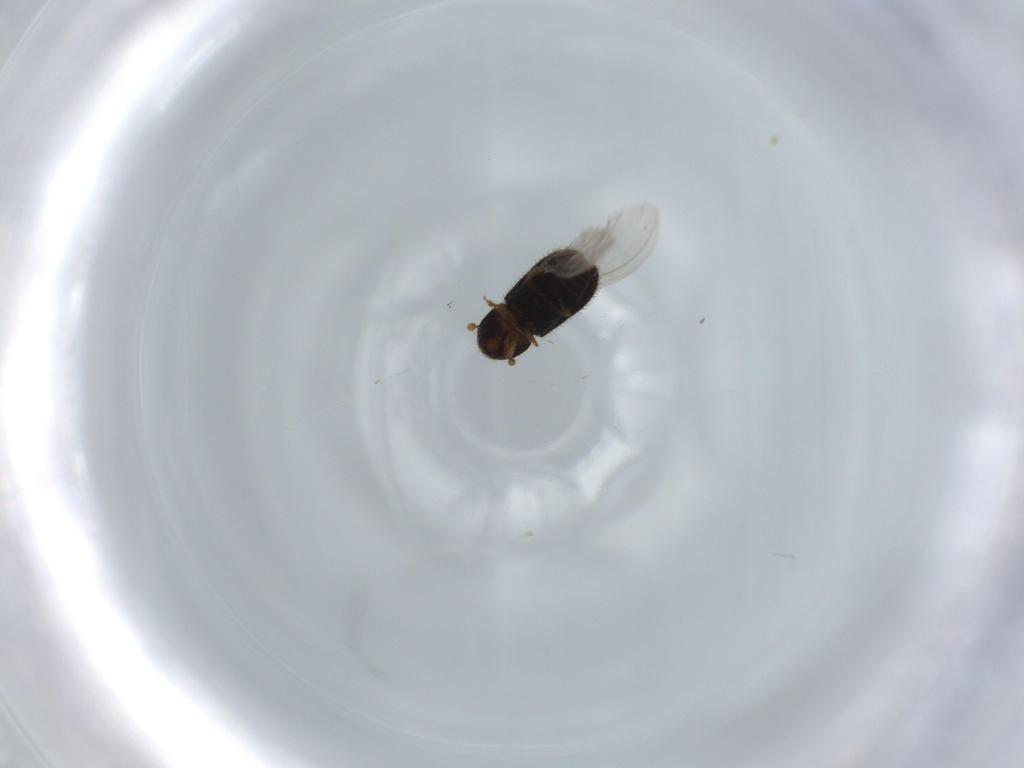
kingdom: Animalia
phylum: Arthropoda
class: Insecta
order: Coleoptera
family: Curculionidae
